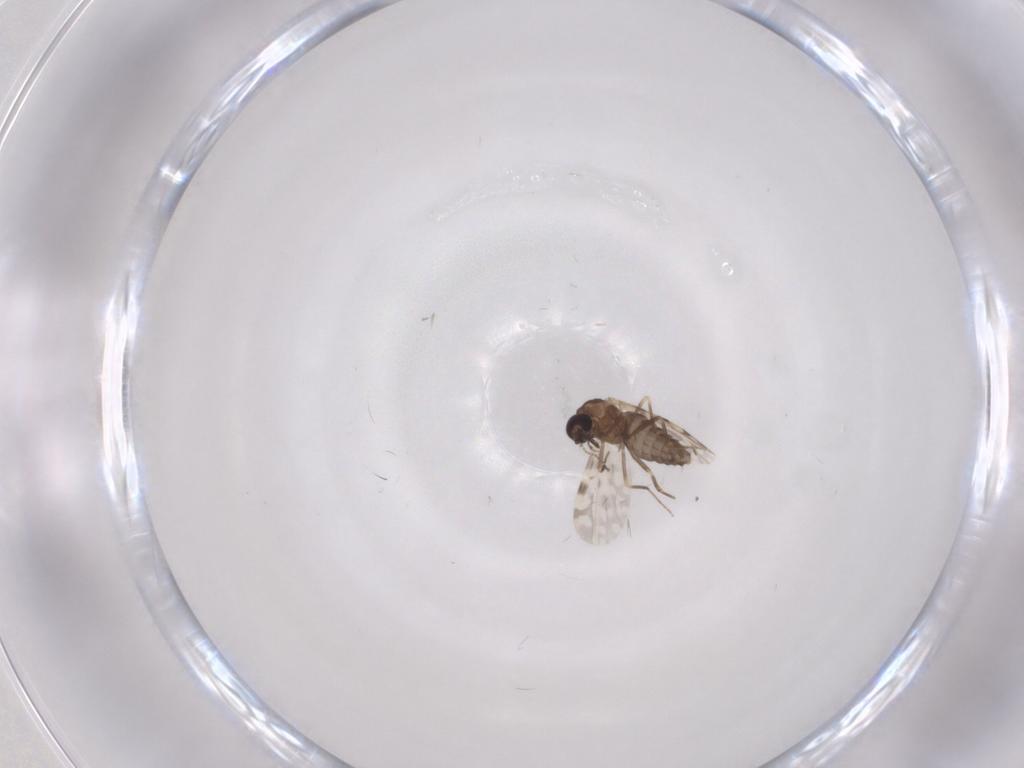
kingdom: Animalia
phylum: Arthropoda
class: Insecta
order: Diptera
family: Ceratopogonidae
